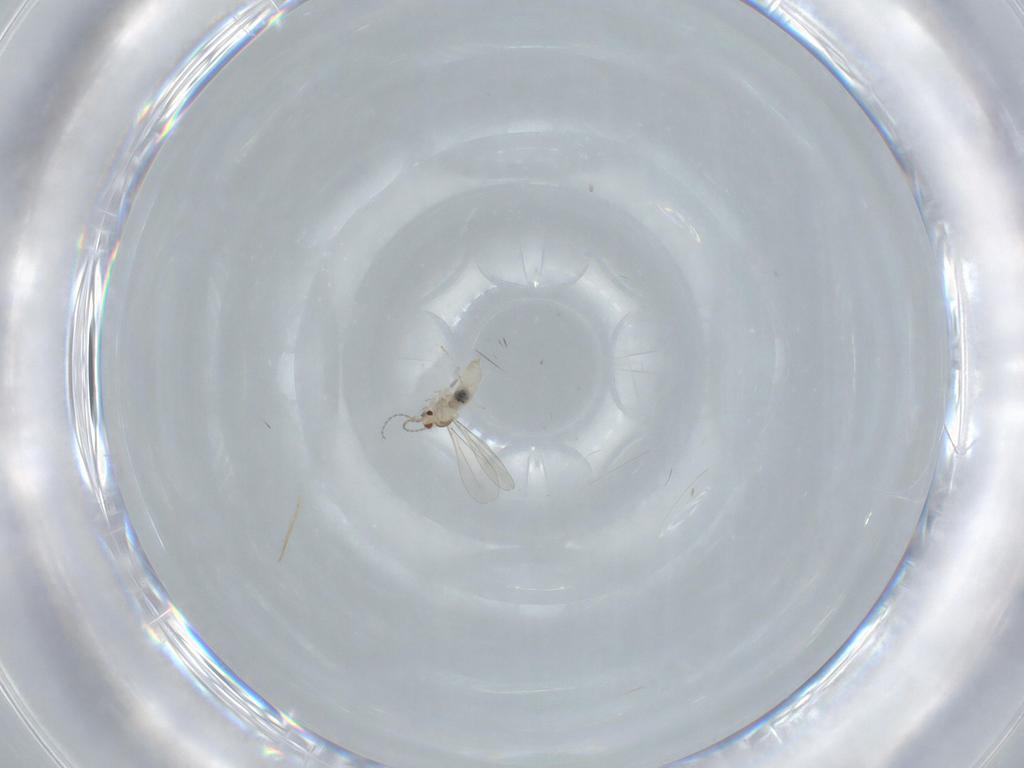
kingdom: Animalia
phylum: Arthropoda
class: Insecta
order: Diptera
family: Cecidomyiidae
